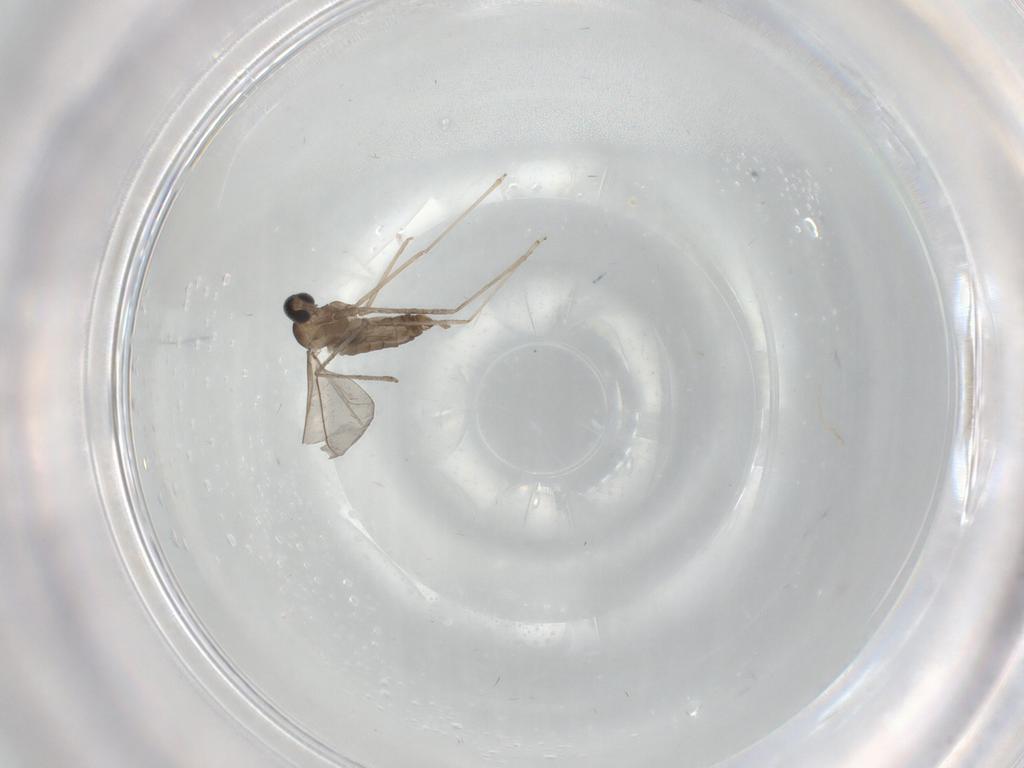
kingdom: Animalia
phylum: Arthropoda
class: Insecta
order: Diptera
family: Cecidomyiidae
